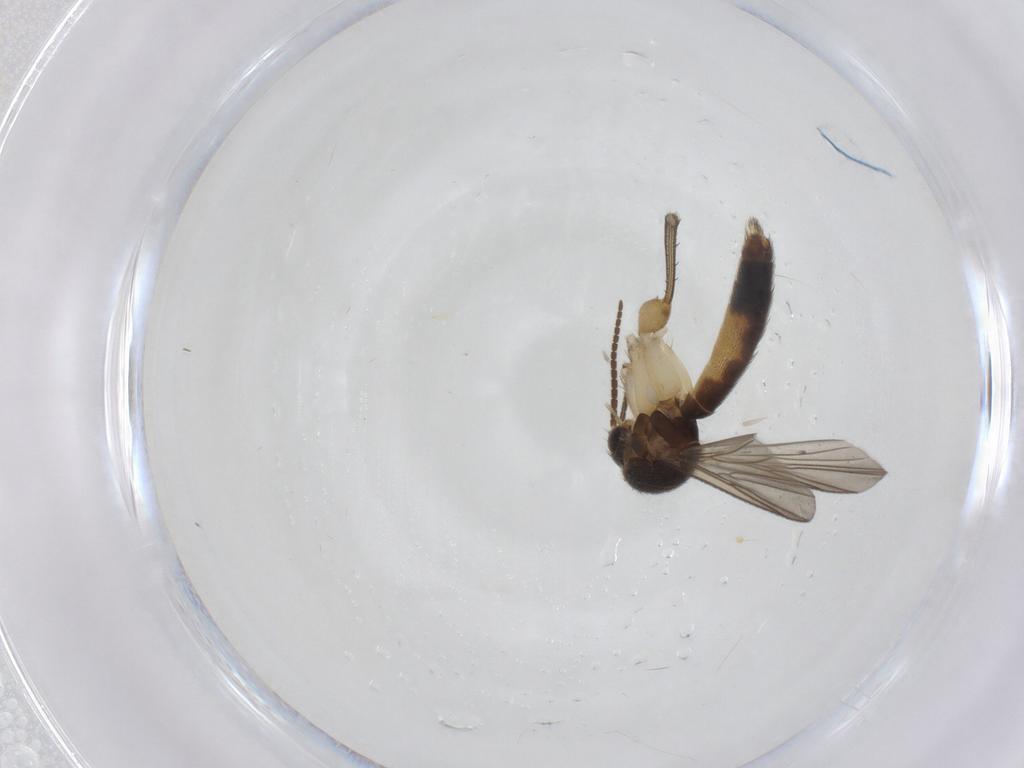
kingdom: Animalia
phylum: Arthropoda
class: Insecta
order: Diptera
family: Mycetophilidae
